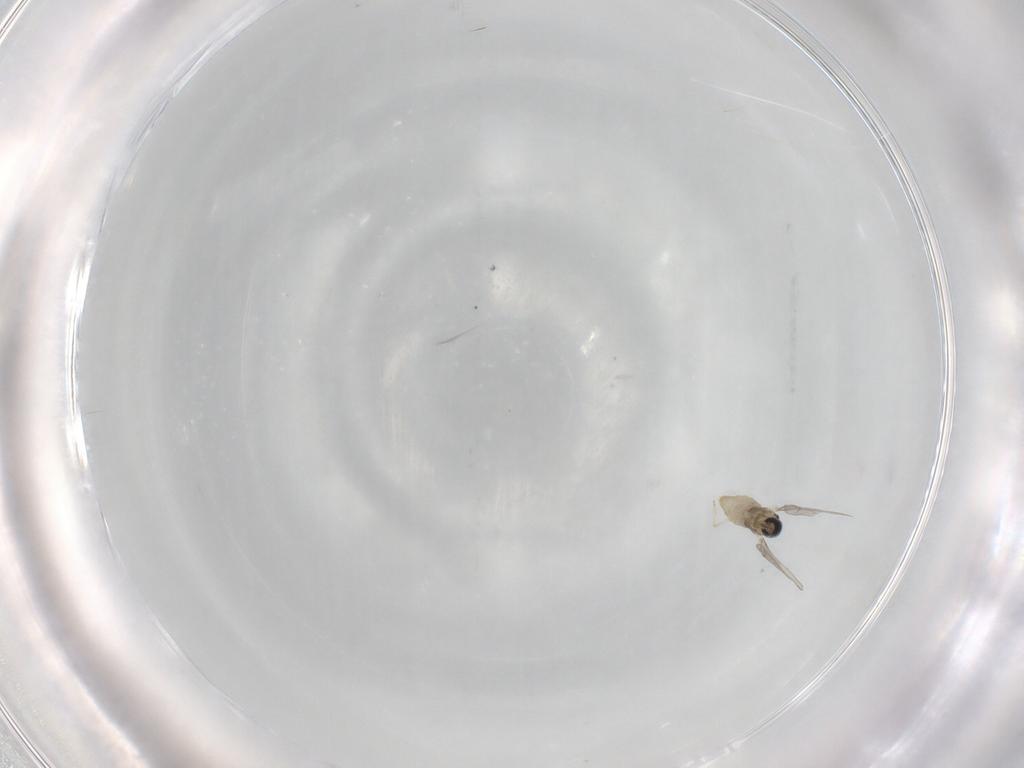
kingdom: Animalia
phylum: Arthropoda
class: Insecta
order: Diptera
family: Cecidomyiidae
